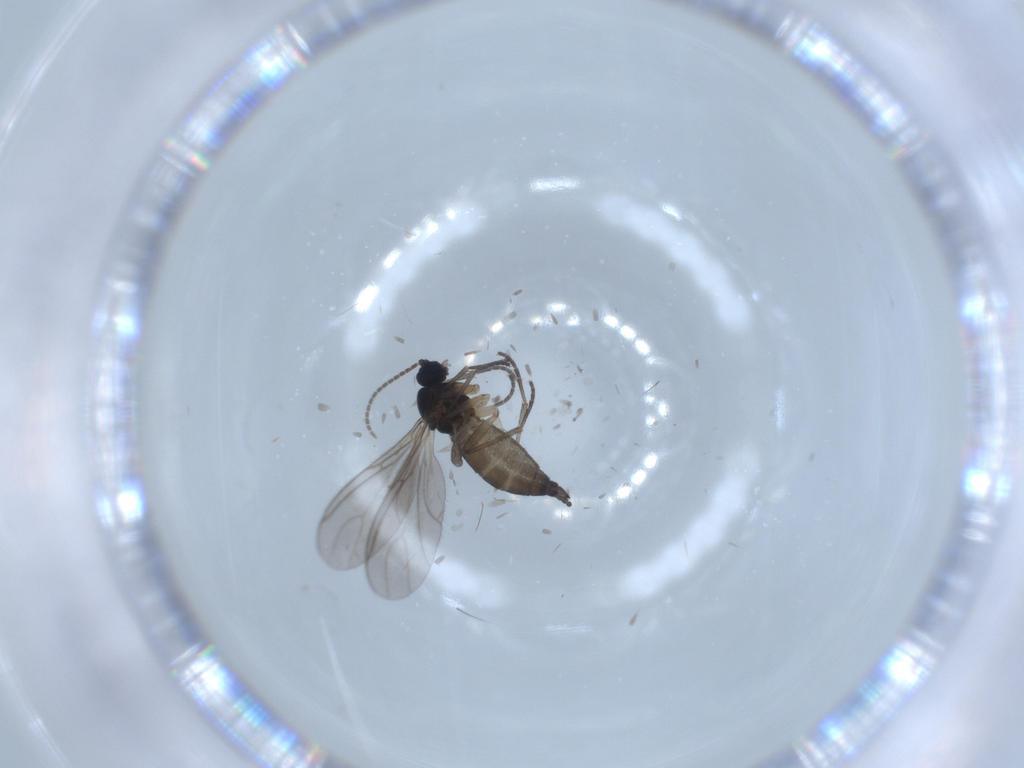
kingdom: Animalia
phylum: Arthropoda
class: Insecta
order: Diptera
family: Sciaridae
